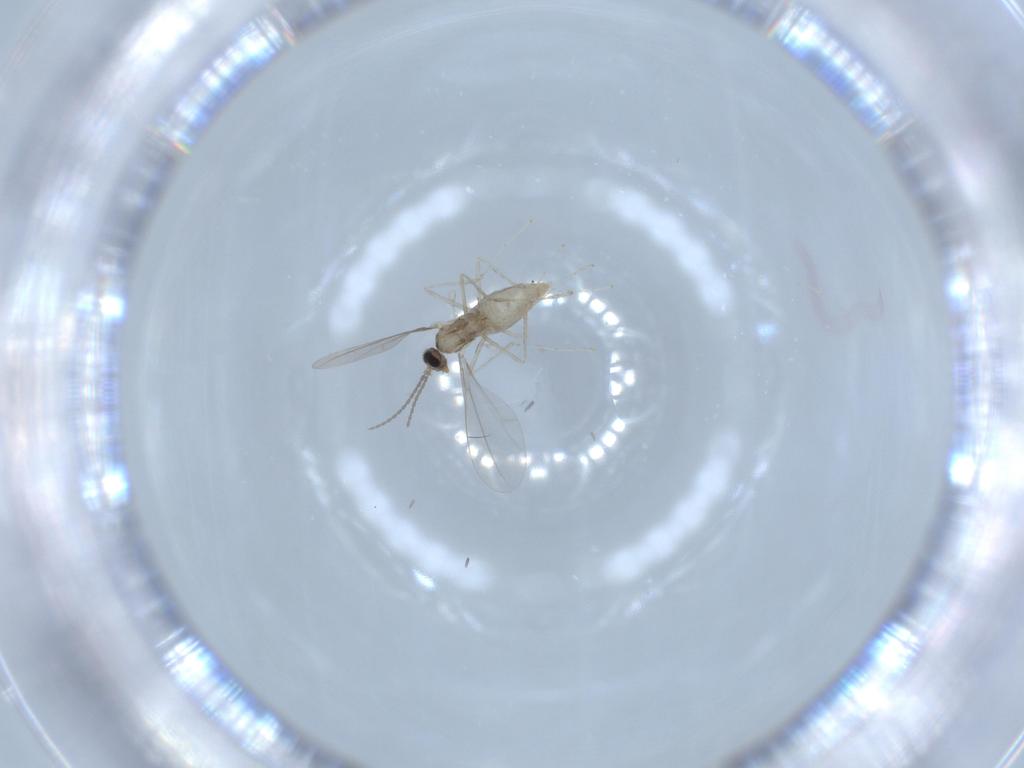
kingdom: Animalia
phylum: Arthropoda
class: Insecta
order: Diptera
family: Cecidomyiidae
